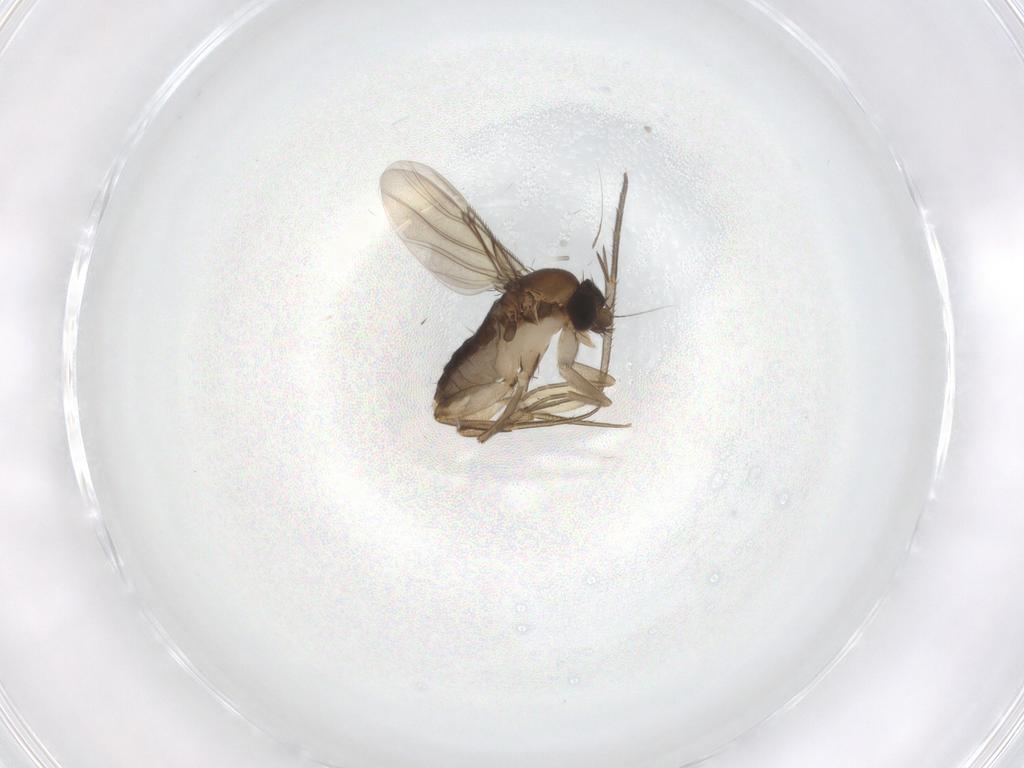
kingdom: Animalia
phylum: Arthropoda
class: Insecta
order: Diptera
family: Phoridae
